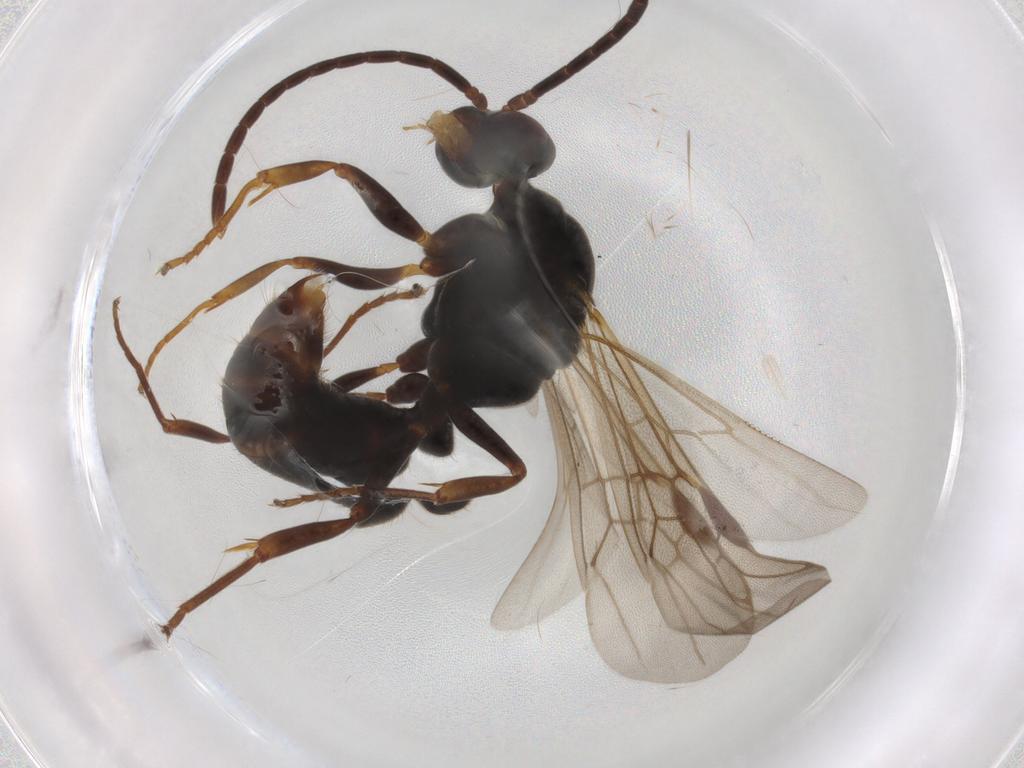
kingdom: Animalia
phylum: Arthropoda
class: Insecta
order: Hymenoptera
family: Formicidae
